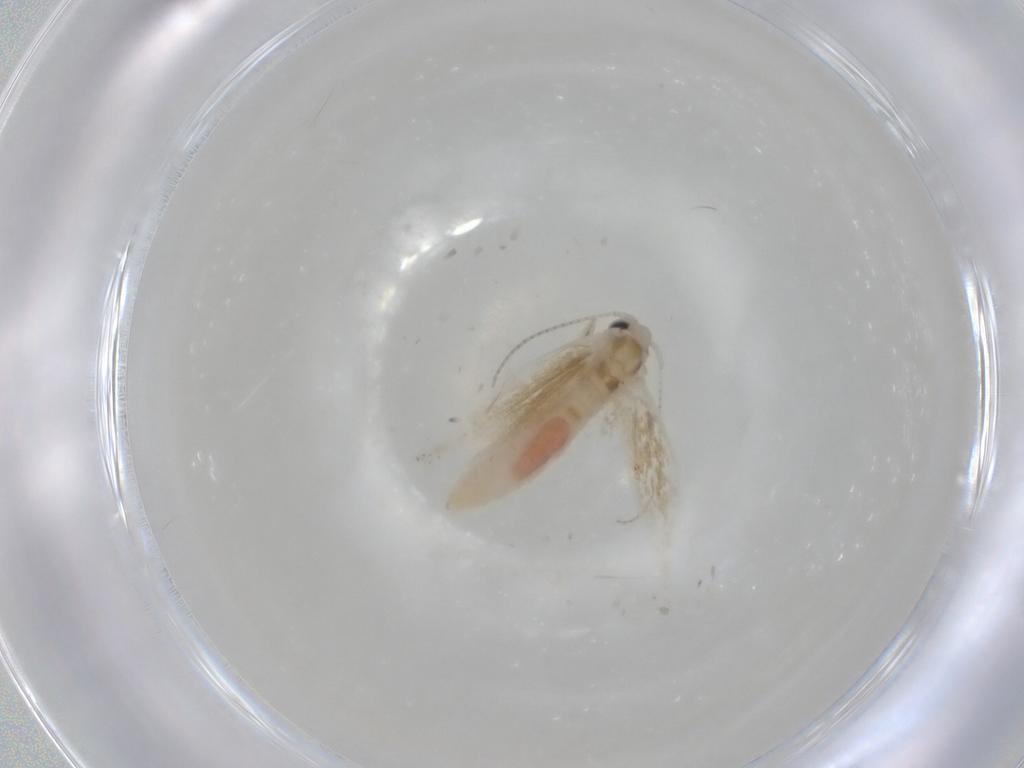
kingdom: Animalia
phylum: Arthropoda
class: Insecta
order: Lepidoptera
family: Bucculatricidae
